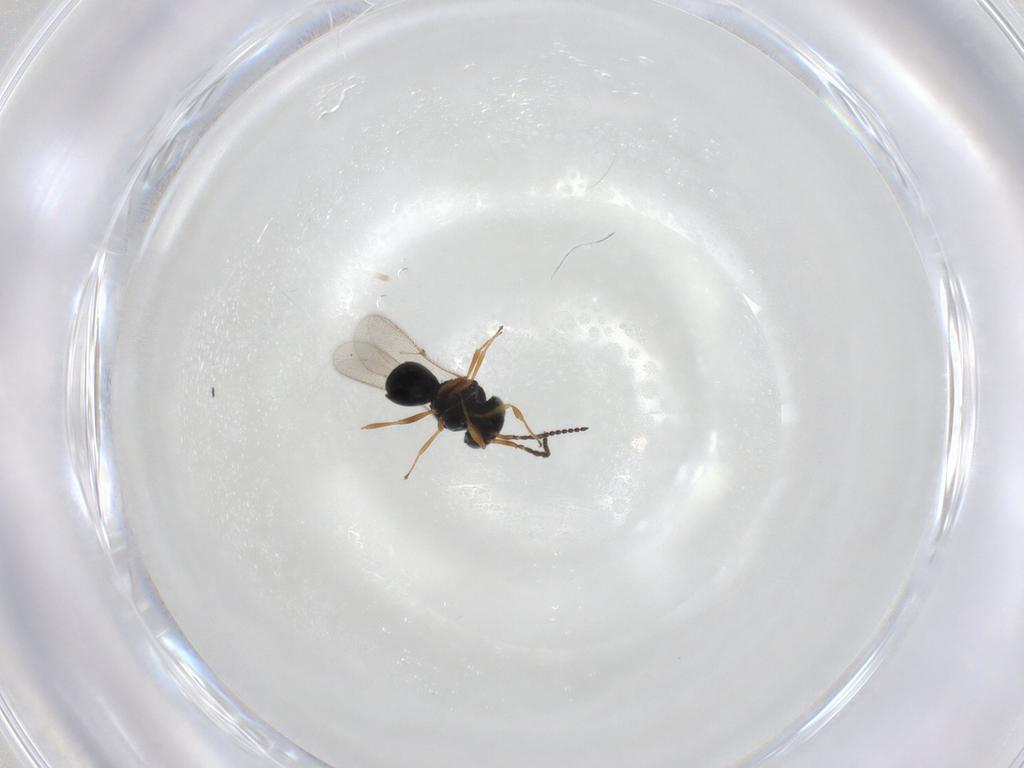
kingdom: Animalia
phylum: Arthropoda
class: Insecta
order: Hymenoptera
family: Scelionidae
